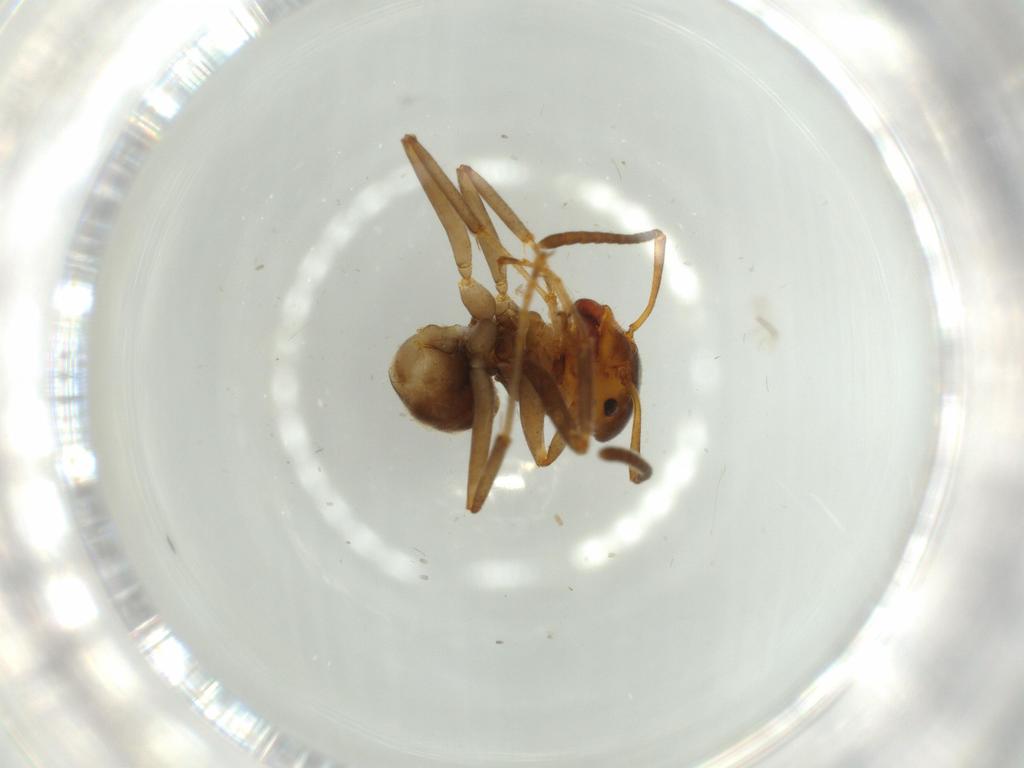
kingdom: Animalia
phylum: Arthropoda
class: Insecta
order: Hymenoptera
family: Formicidae
